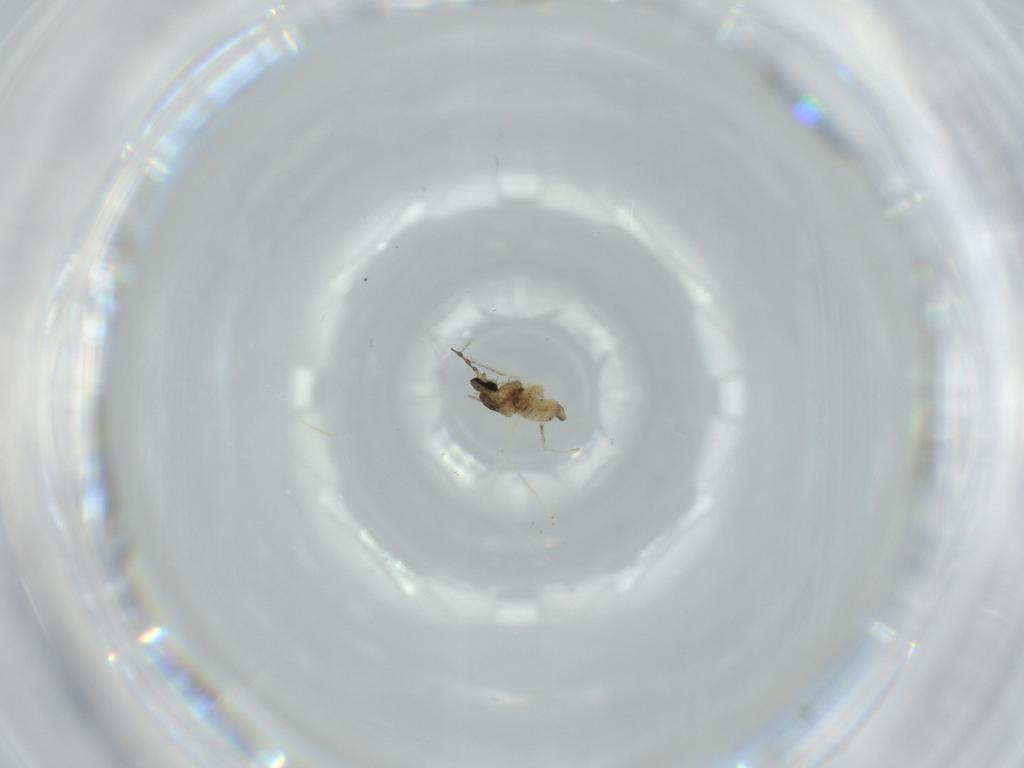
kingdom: Animalia
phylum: Arthropoda
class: Insecta
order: Diptera
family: Cecidomyiidae
